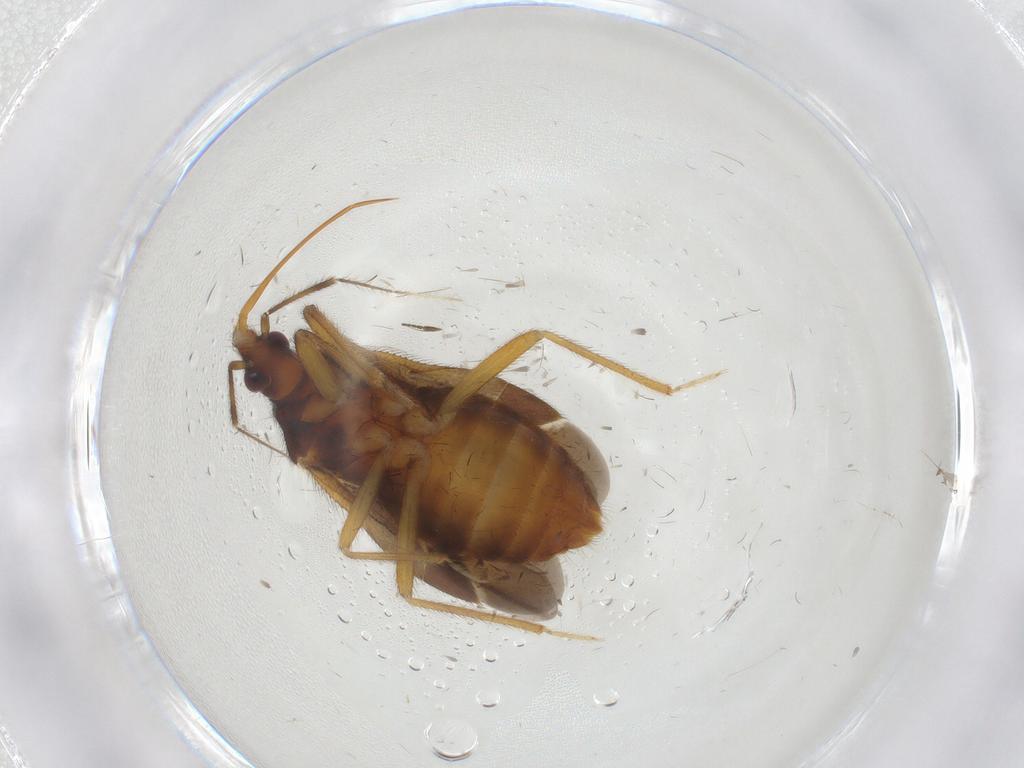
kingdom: Animalia
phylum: Arthropoda
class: Insecta
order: Hemiptera
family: Anthocoridae
